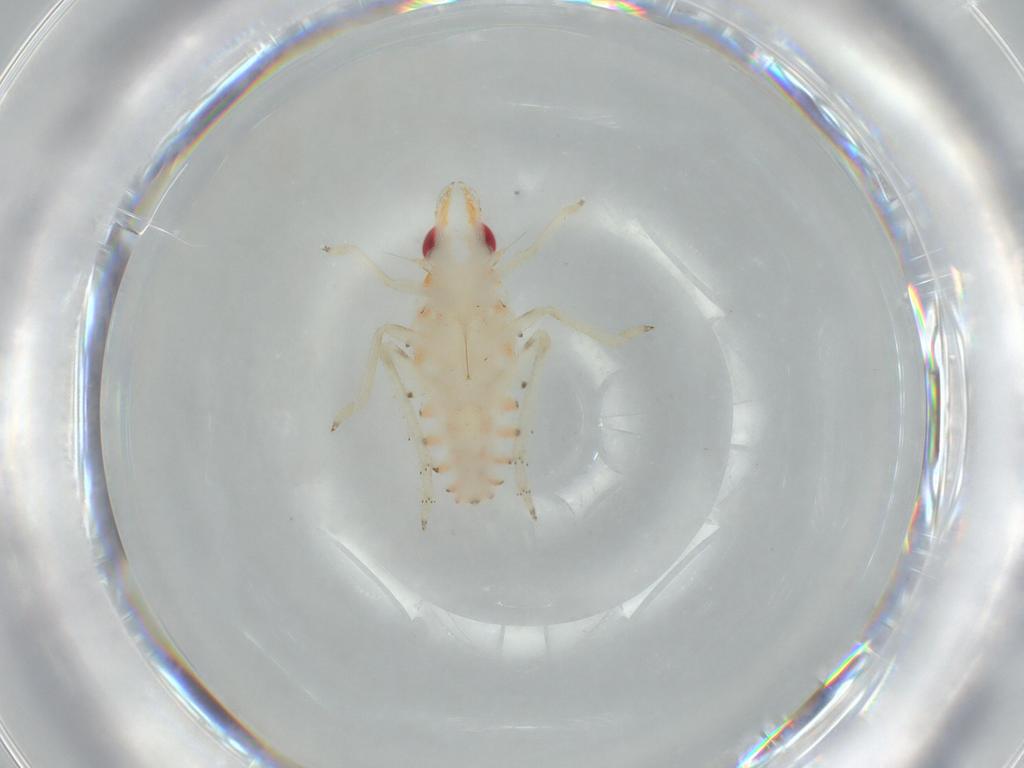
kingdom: Animalia
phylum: Arthropoda
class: Insecta
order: Hemiptera
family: Tropiduchidae
